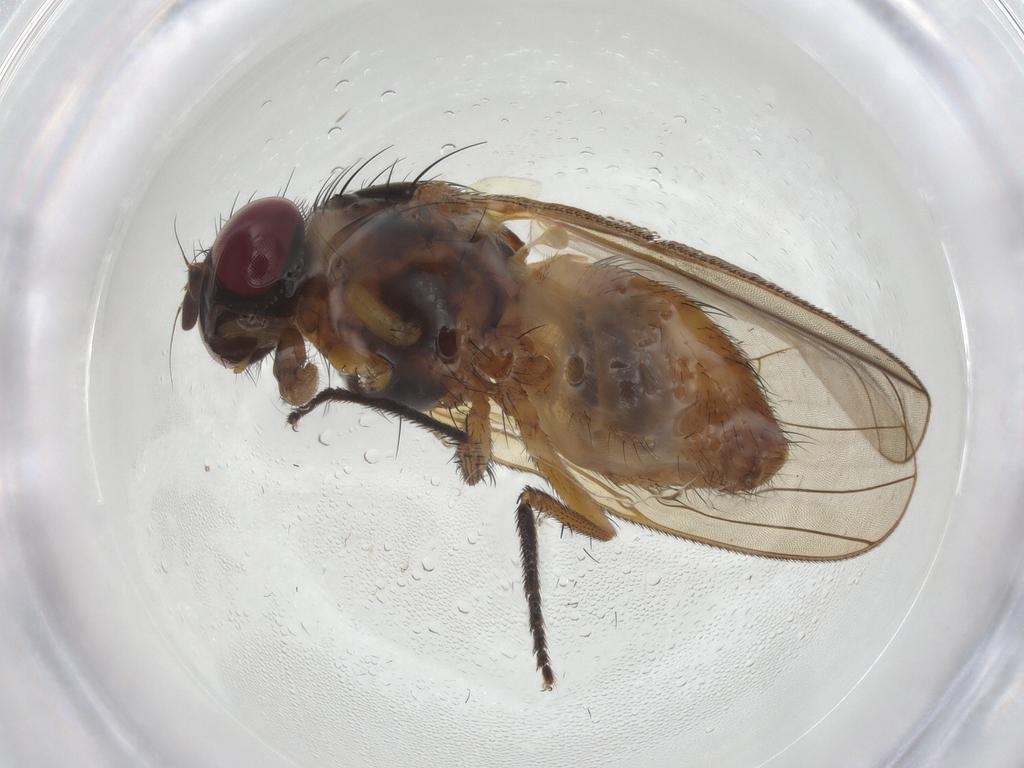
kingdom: Animalia
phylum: Arthropoda
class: Insecta
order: Diptera
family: Fannia
